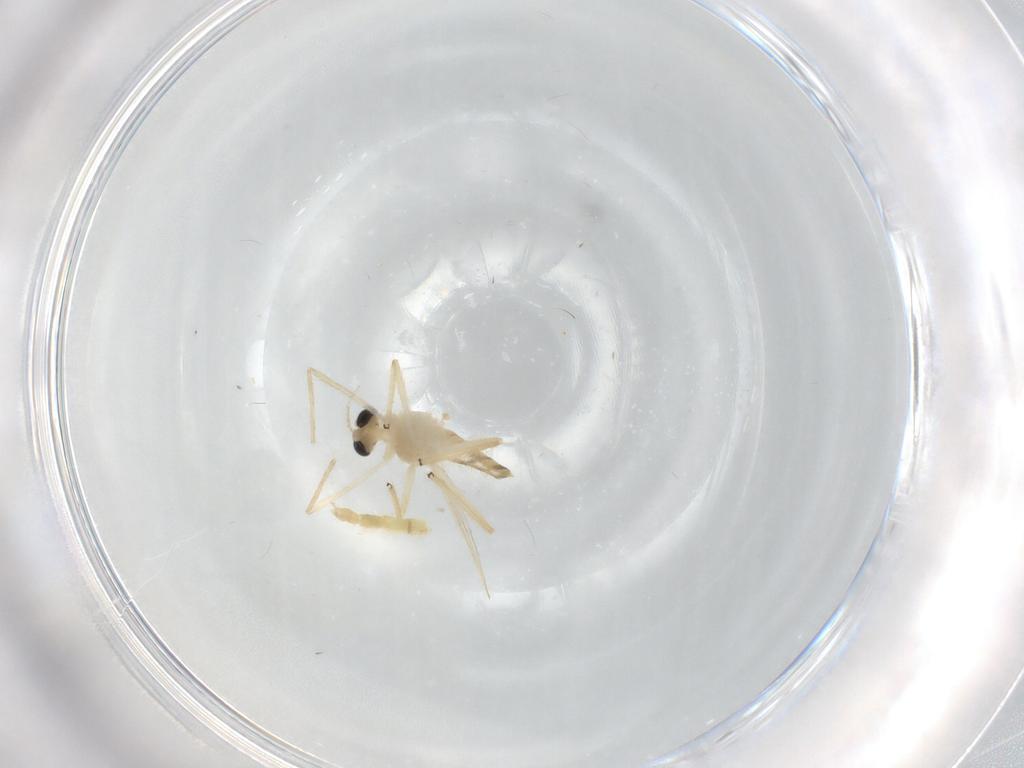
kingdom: Animalia
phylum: Arthropoda
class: Insecta
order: Diptera
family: Chironomidae
